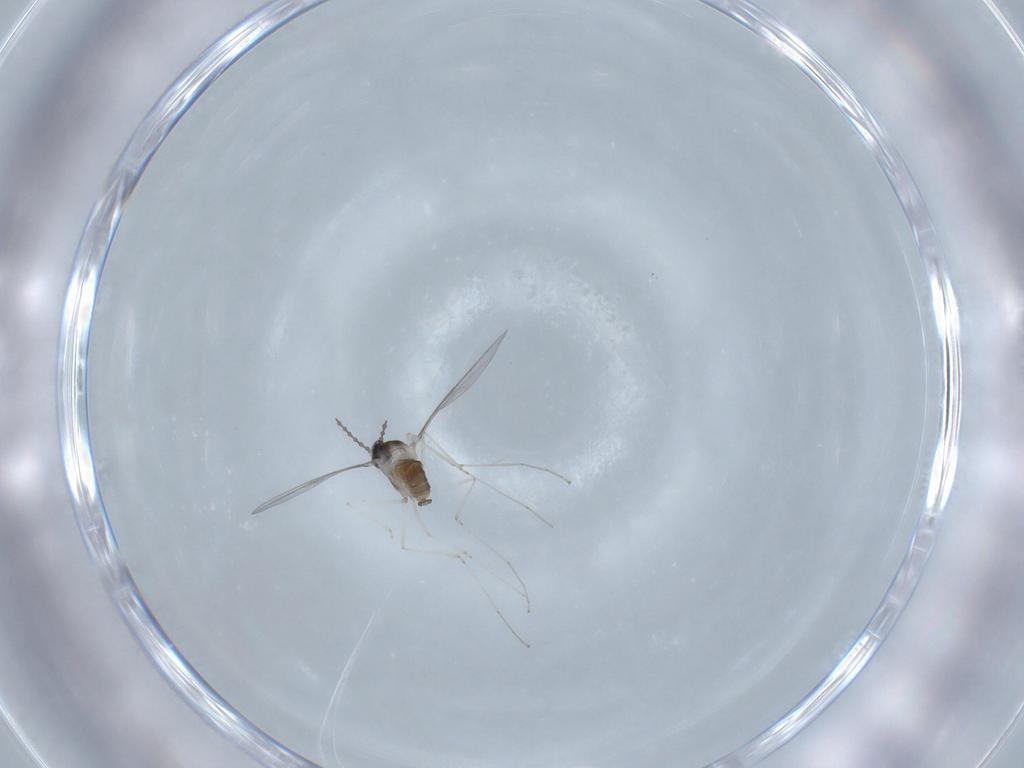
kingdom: Animalia
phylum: Arthropoda
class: Insecta
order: Diptera
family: Cecidomyiidae
